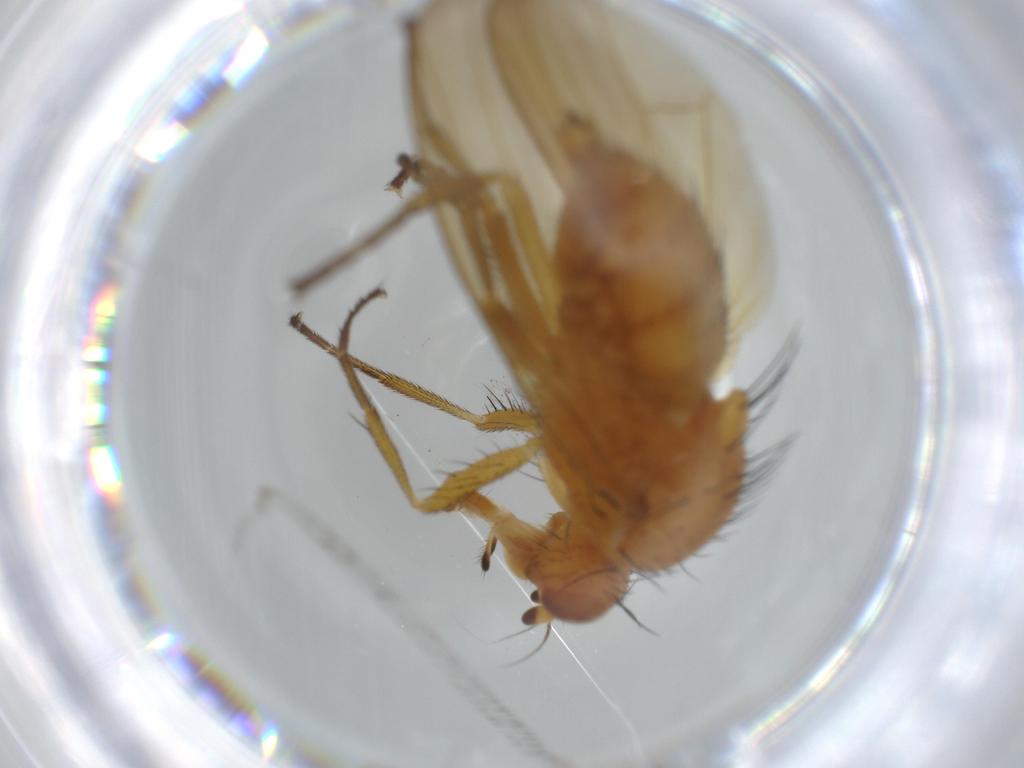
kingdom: Animalia
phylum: Arthropoda
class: Insecta
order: Diptera
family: Lauxaniidae
